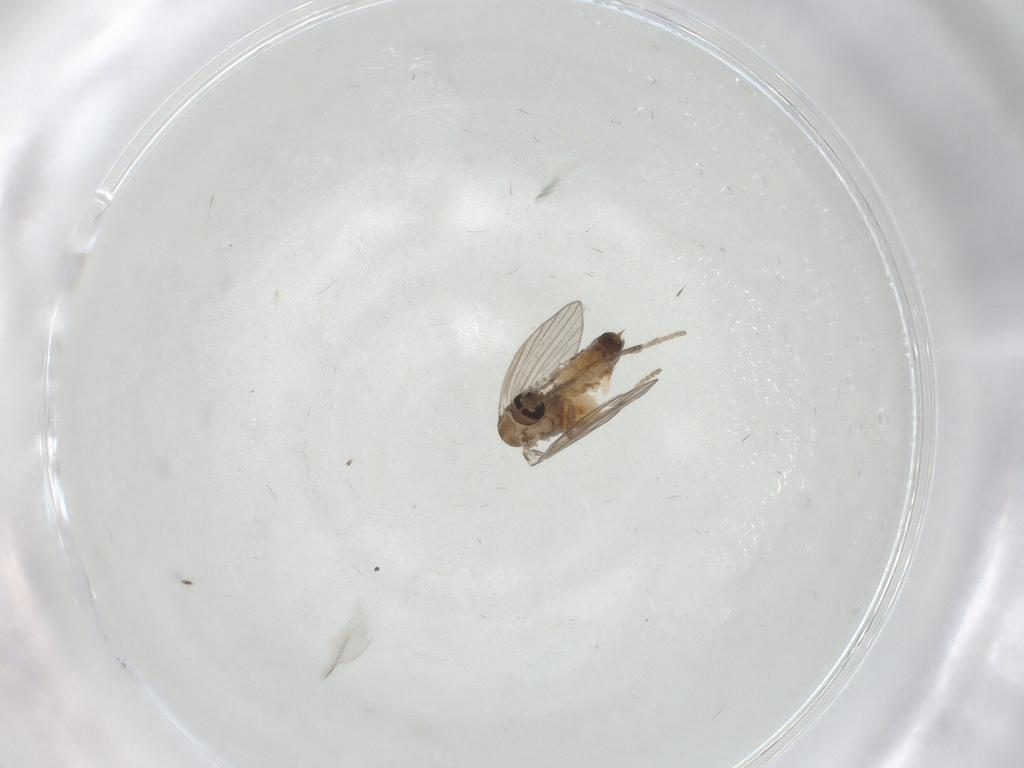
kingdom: Animalia
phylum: Arthropoda
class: Insecta
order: Diptera
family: Psychodidae
